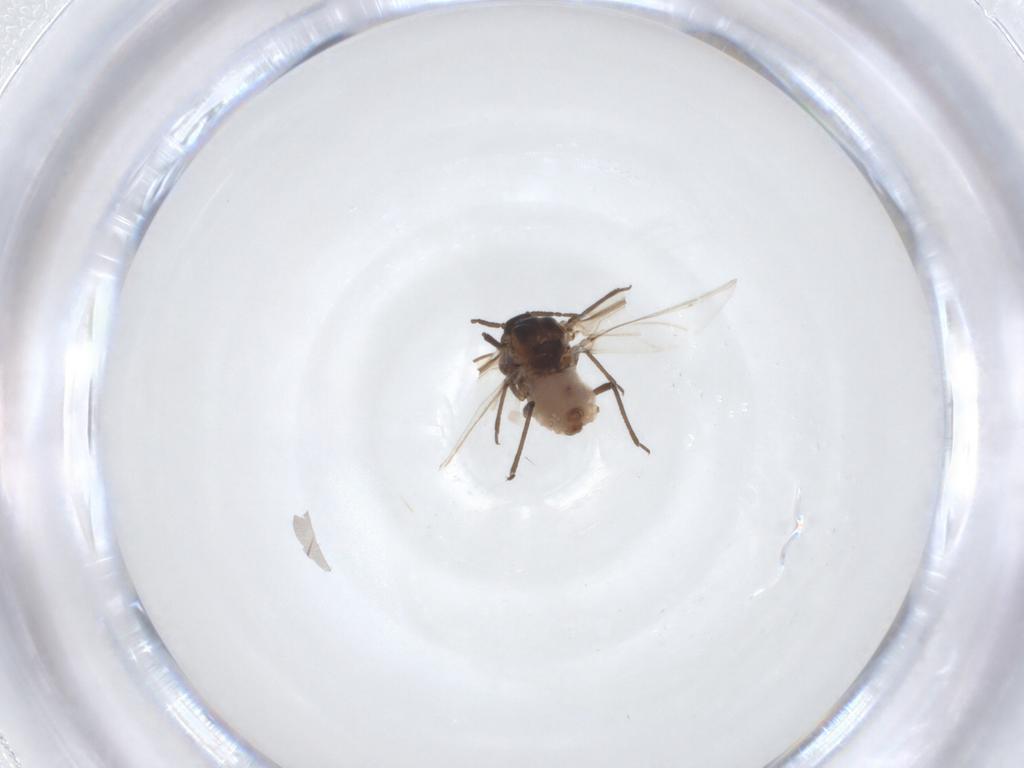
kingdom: Animalia
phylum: Arthropoda
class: Insecta
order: Hemiptera
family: Aphididae
